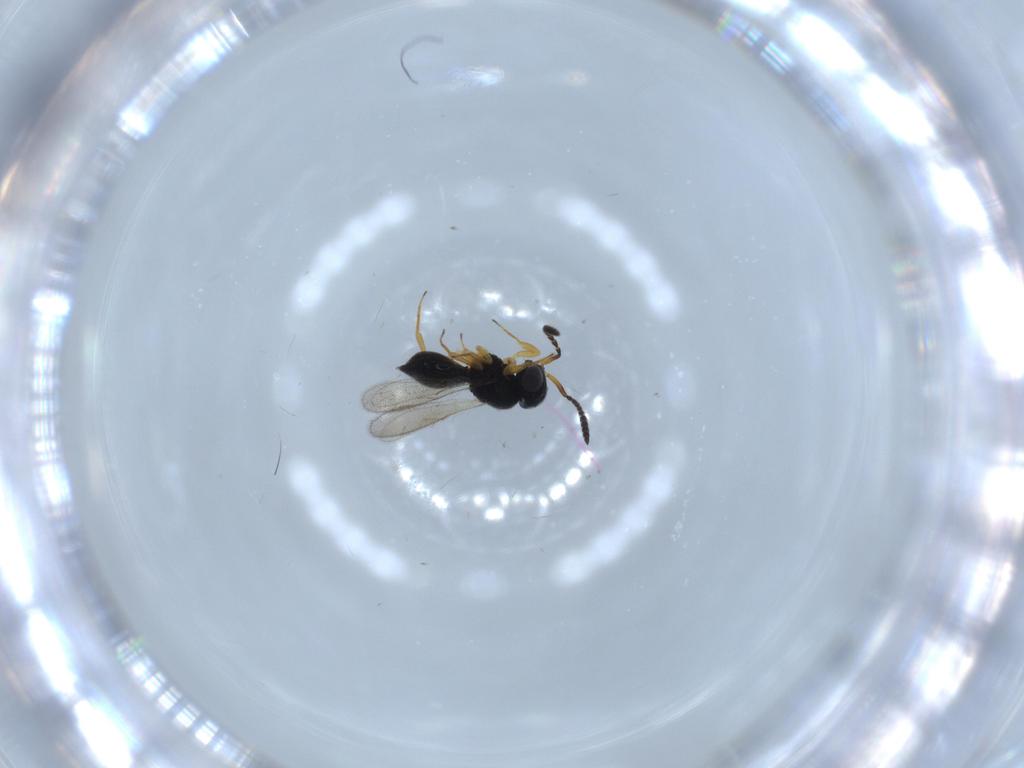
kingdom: Animalia
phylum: Arthropoda
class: Insecta
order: Hymenoptera
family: Scelionidae
